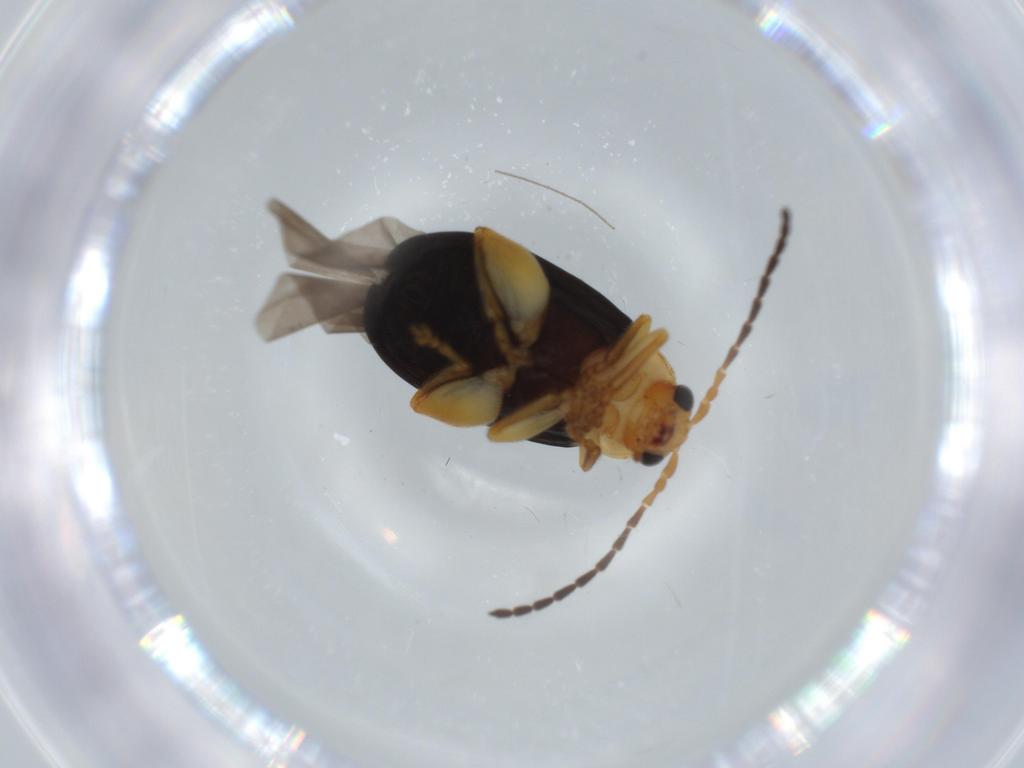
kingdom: Animalia
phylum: Arthropoda
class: Insecta
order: Coleoptera
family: Chrysomelidae
